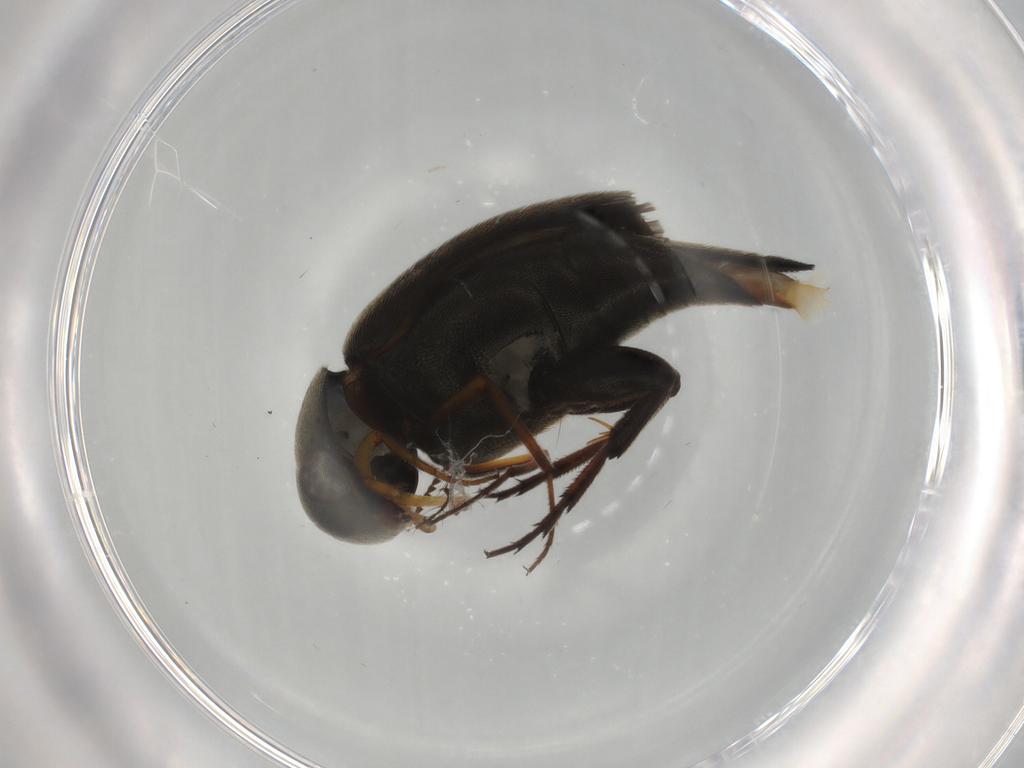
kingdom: Animalia
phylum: Arthropoda
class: Insecta
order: Coleoptera
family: Mordellidae
